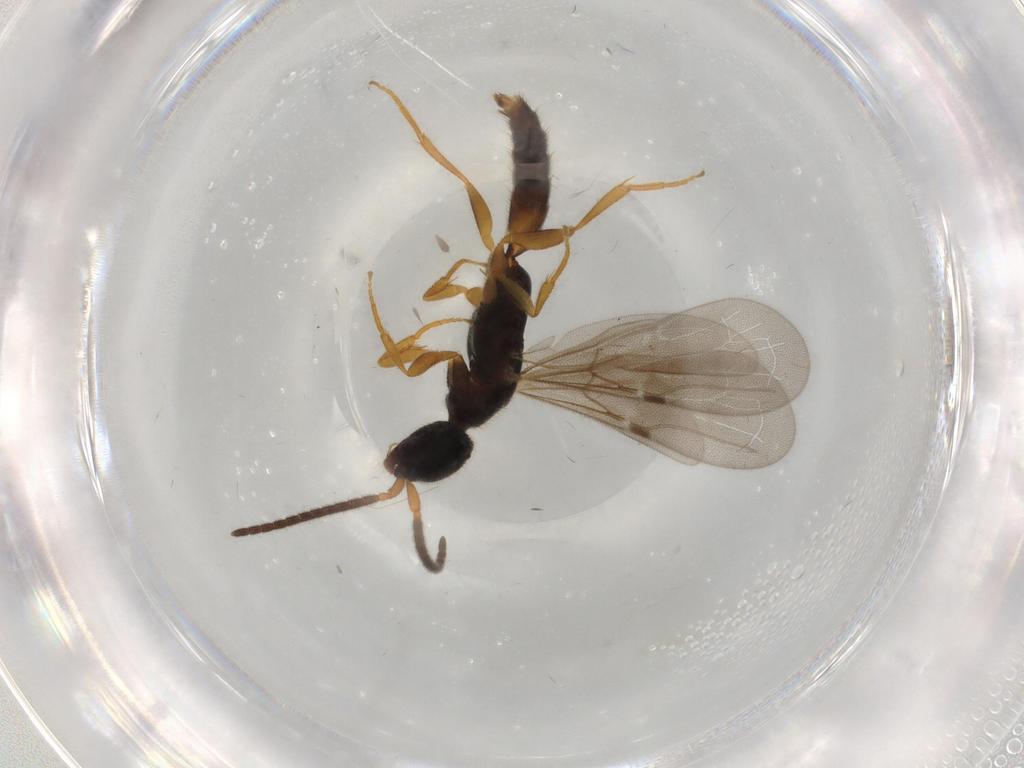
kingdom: Animalia
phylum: Arthropoda
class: Insecta
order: Hymenoptera
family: Bethylidae
